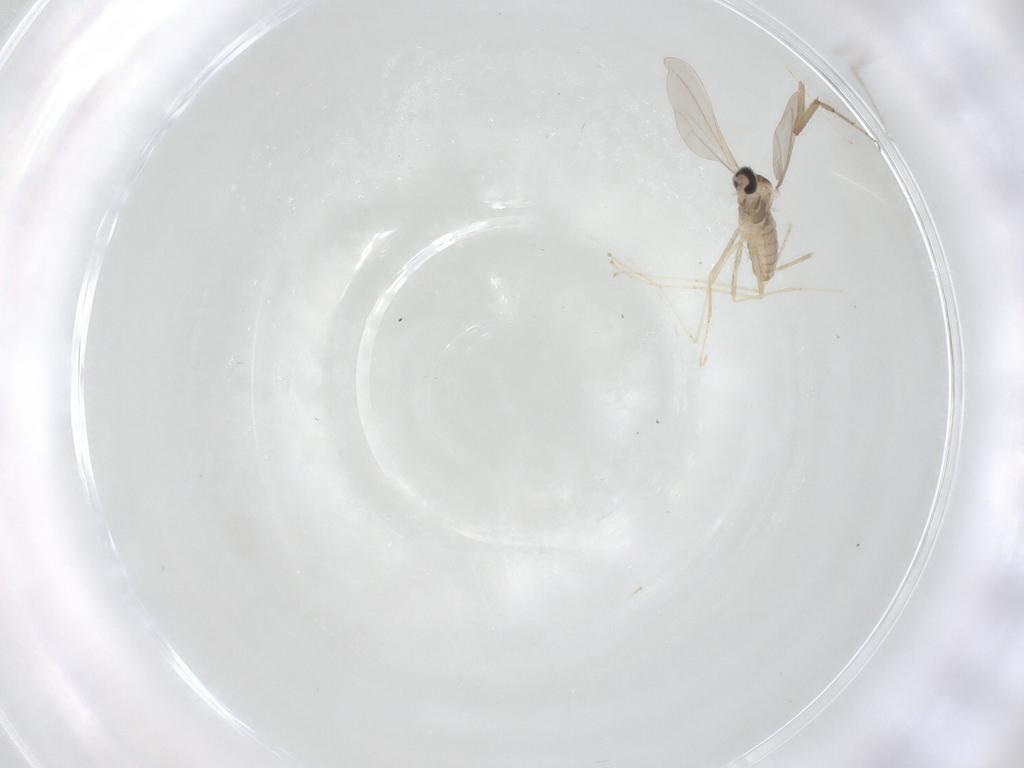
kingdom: Animalia
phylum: Arthropoda
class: Insecta
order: Diptera
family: Cecidomyiidae
